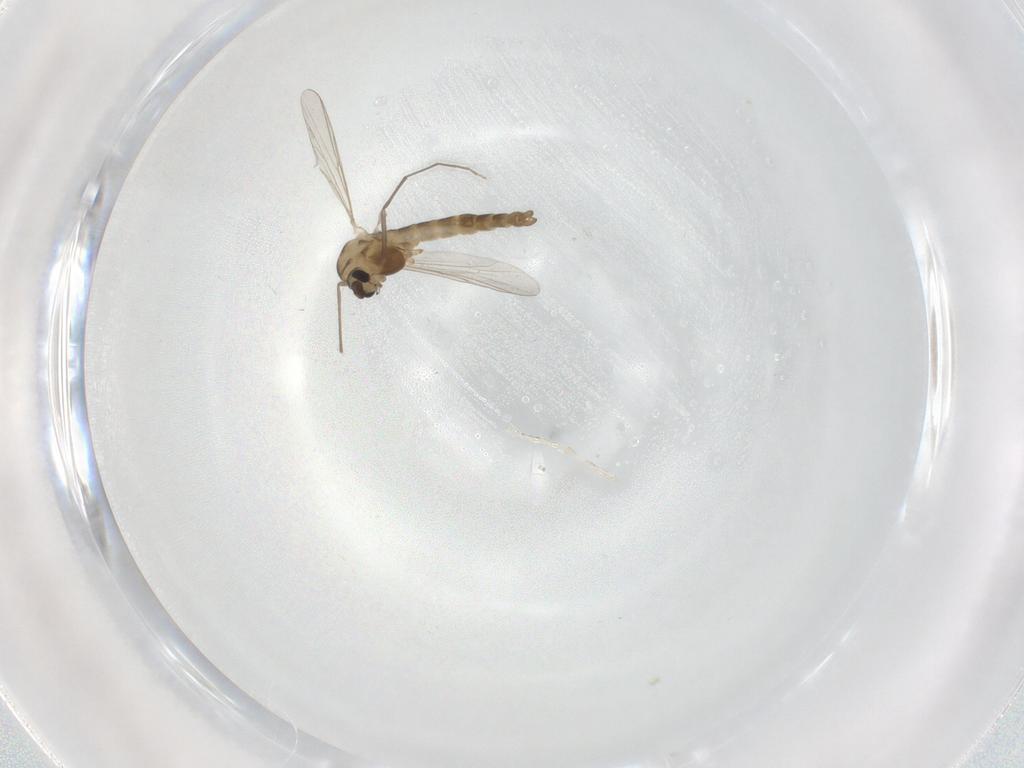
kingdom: Animalia
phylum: Arthropoda
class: Insecta
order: Diptera
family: Chironomidae
